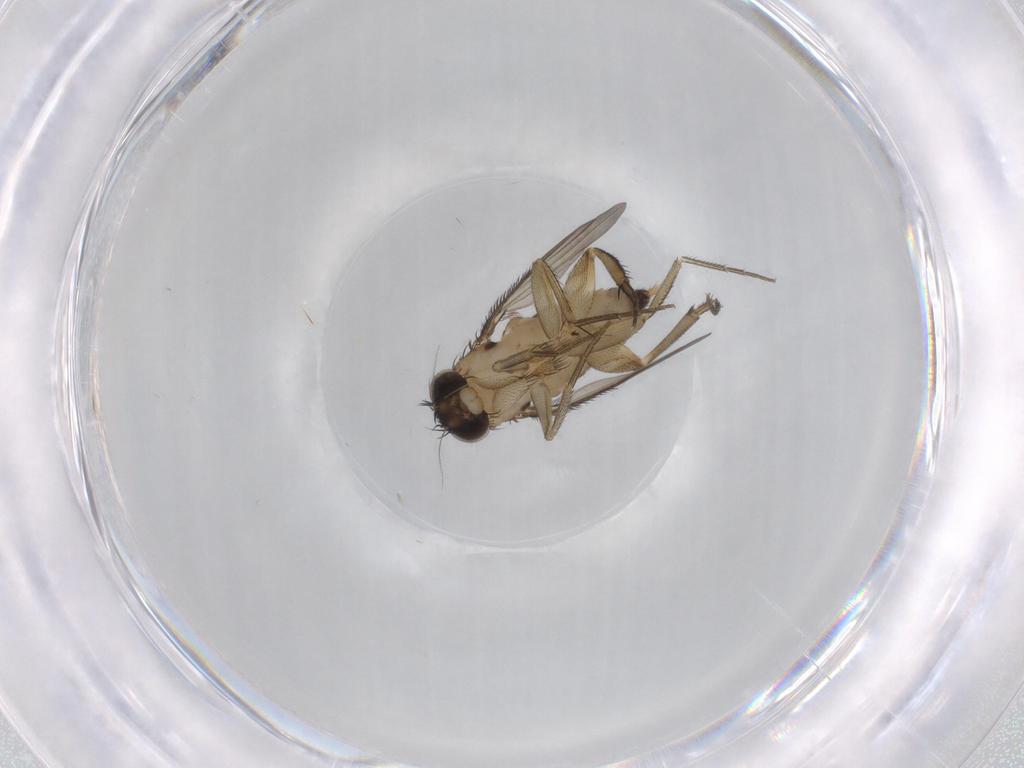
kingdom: Animalia
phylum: Arthropoda
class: Insecta
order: Diptera
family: Phoridae
